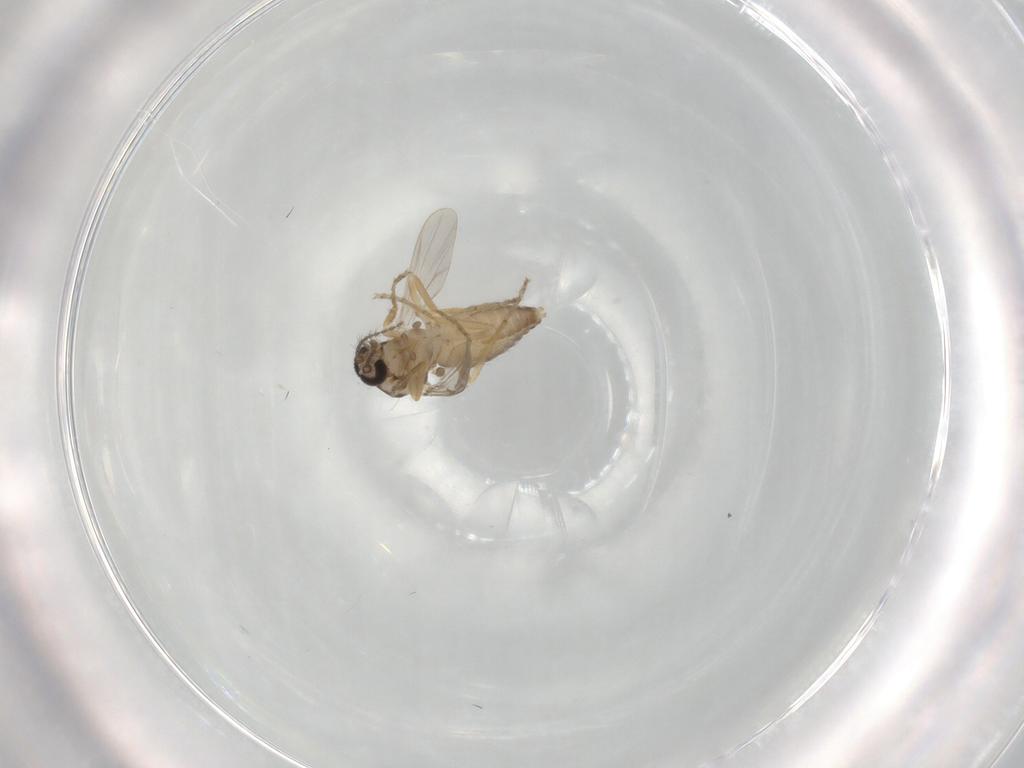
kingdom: Animalia
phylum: Arthropoda
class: Insecta
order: Diptera
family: Ceratopogonidae
